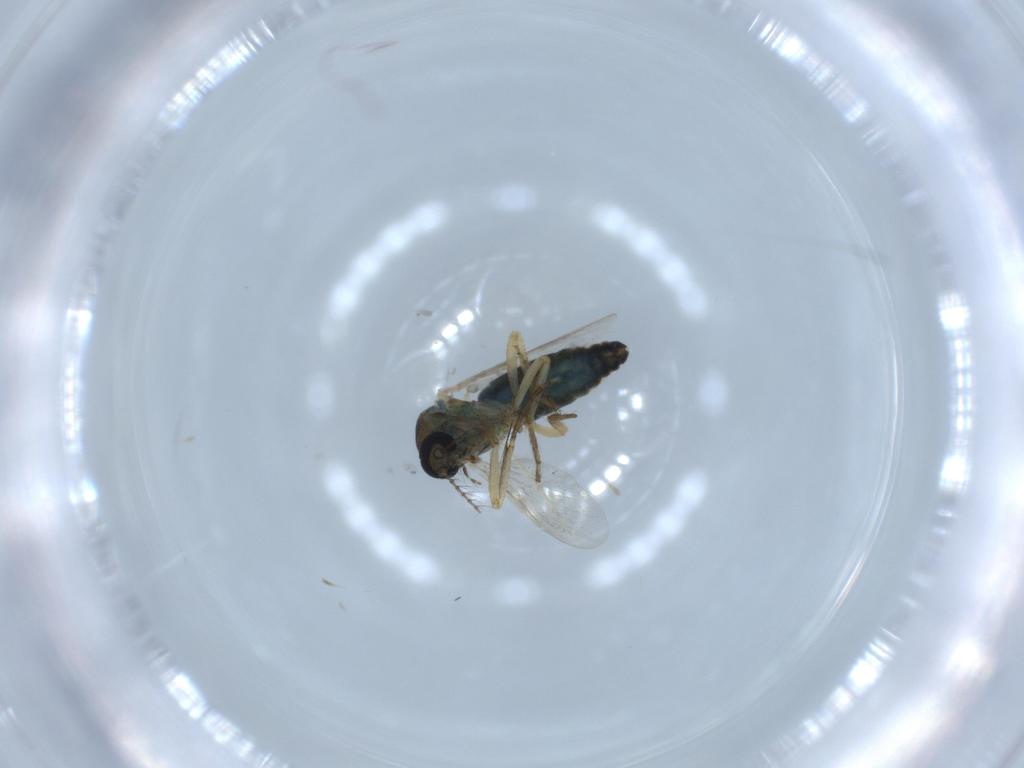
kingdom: Animalia
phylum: Arthropoda
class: Insecta
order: Diptera
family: Ceratopogonidae
